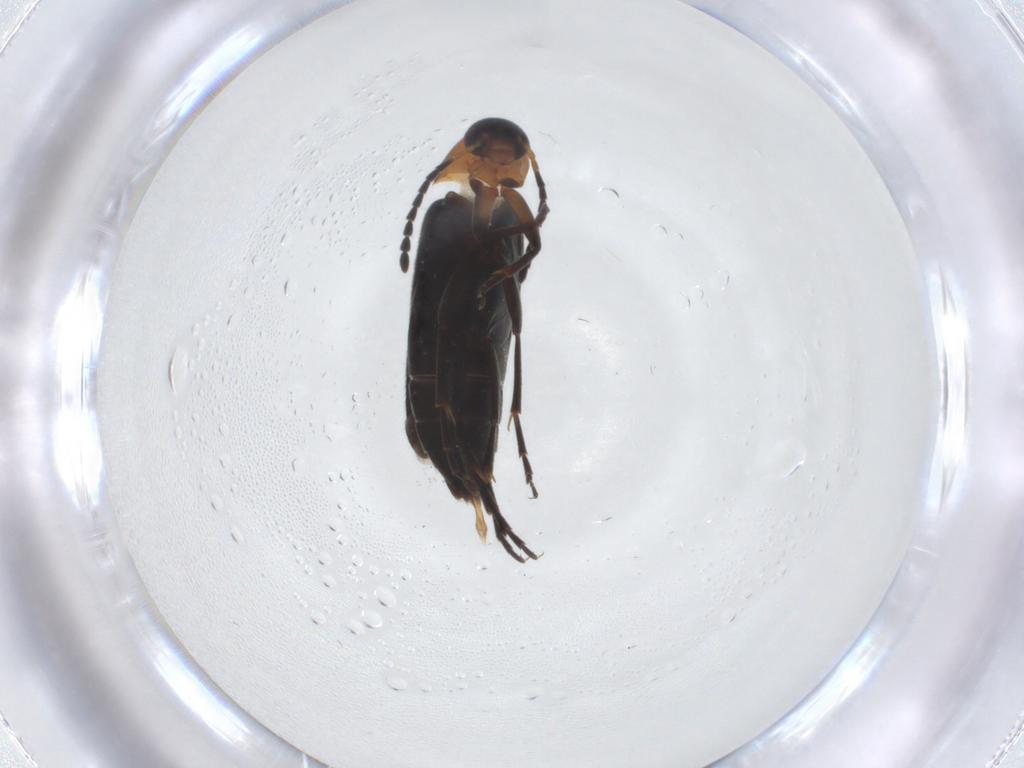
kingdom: Animalia
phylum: Arthropoda
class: Insecta
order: Coleoptera
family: Scraptiidae
